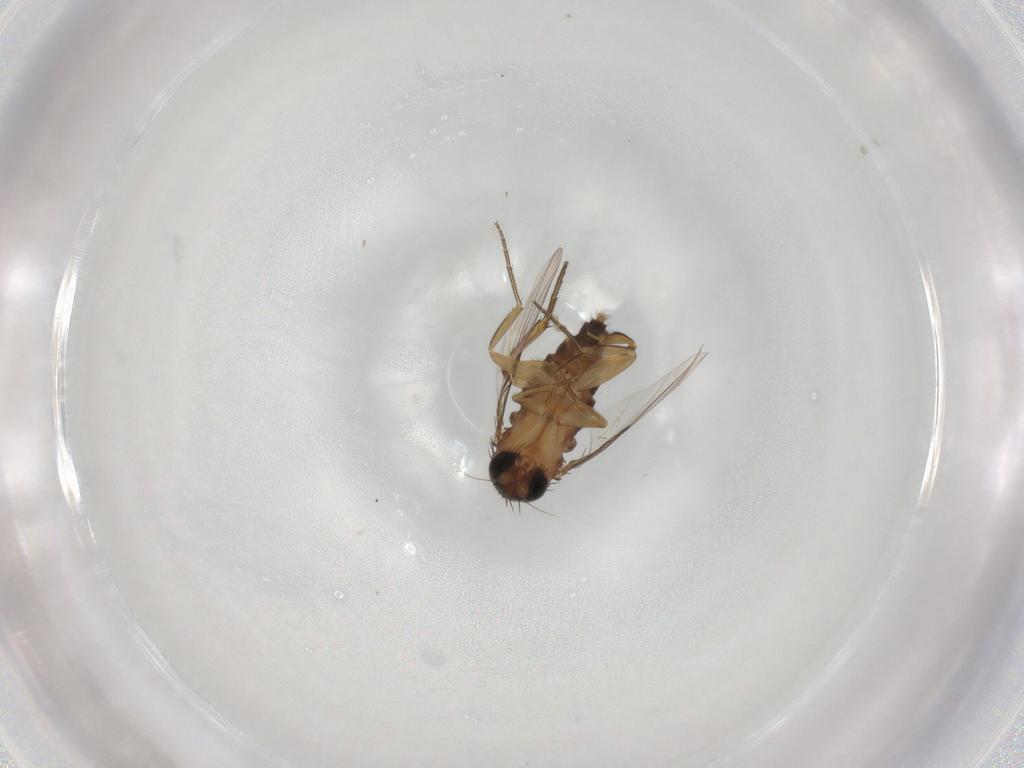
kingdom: Animalia
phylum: Arthropoda
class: Insecta
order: Diptera
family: Phoridae
